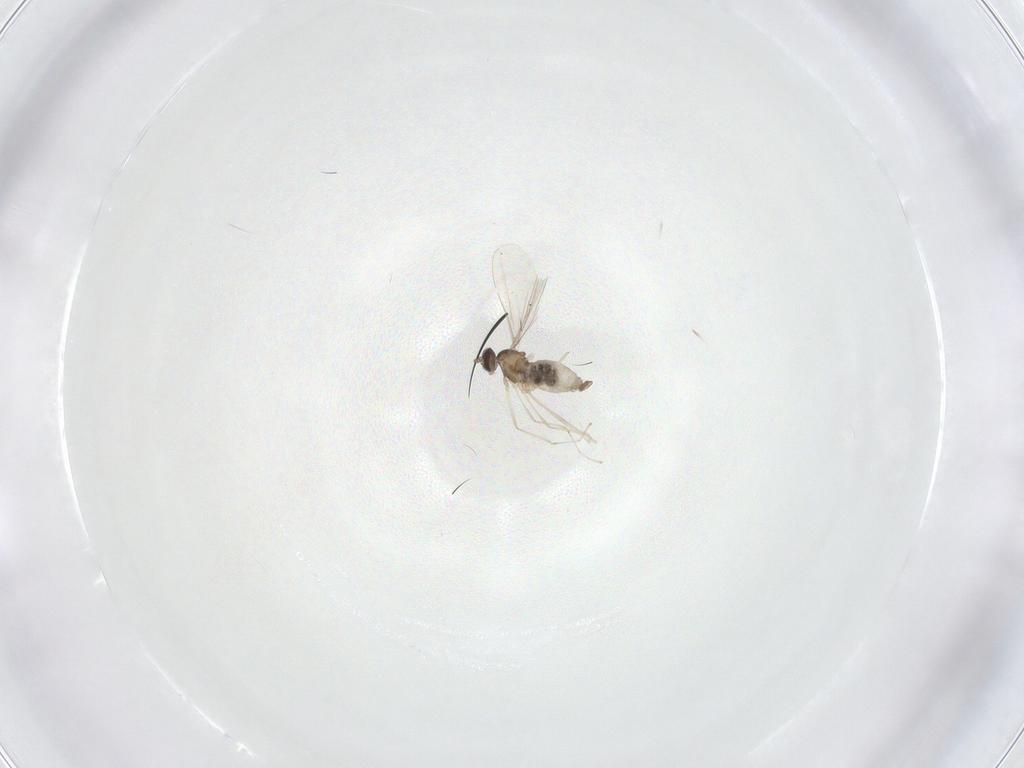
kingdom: Animalia
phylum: Arthropoda
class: Insecta
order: Diptera
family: Cecidomyiidae
